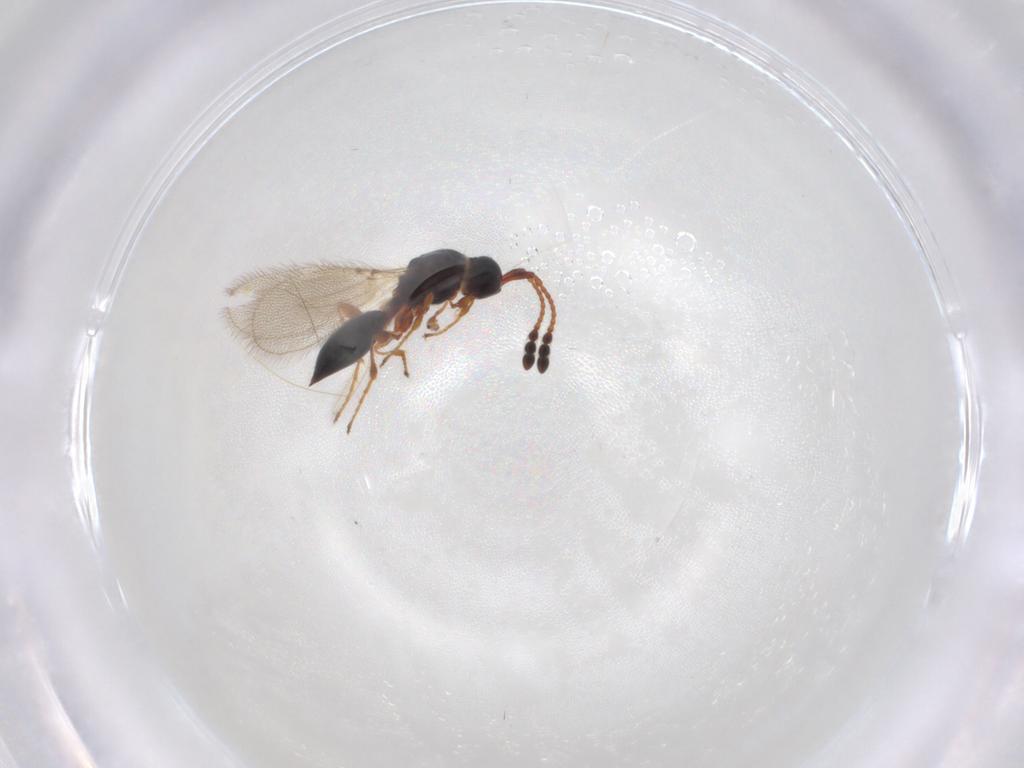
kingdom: Animalia
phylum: Arthropoda
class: Insecta
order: Hymenoptera
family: Diapriidae
